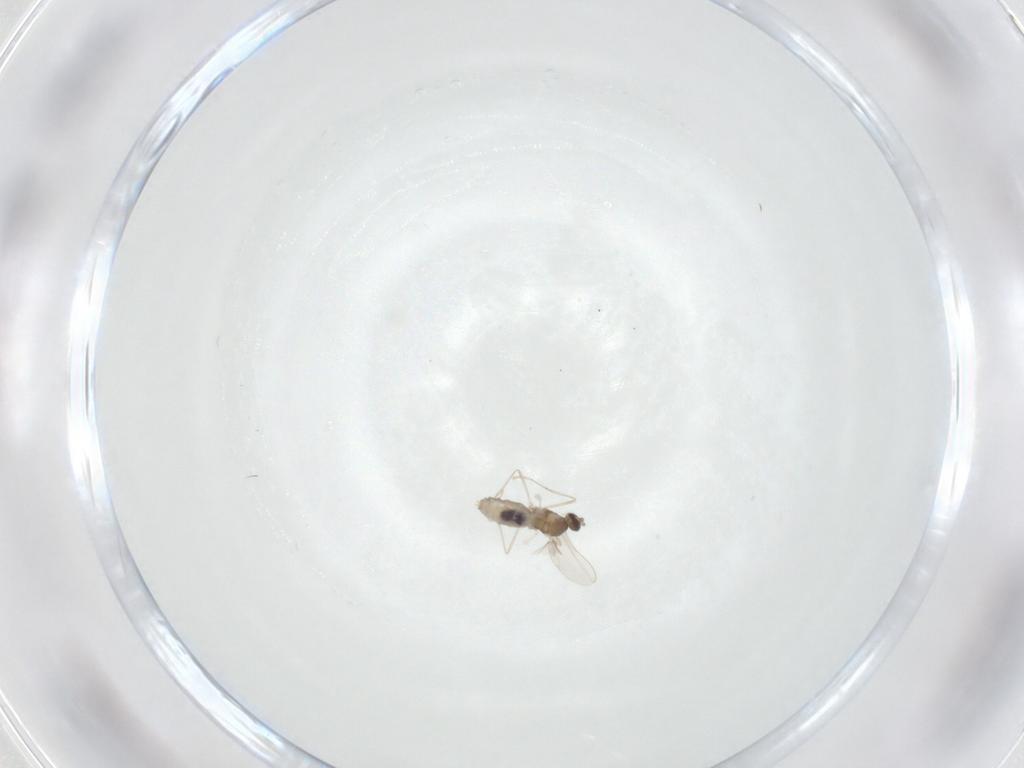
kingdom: Animalia
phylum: Arthropoda
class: Insecta
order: Diptera
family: Cecidomyiidae
